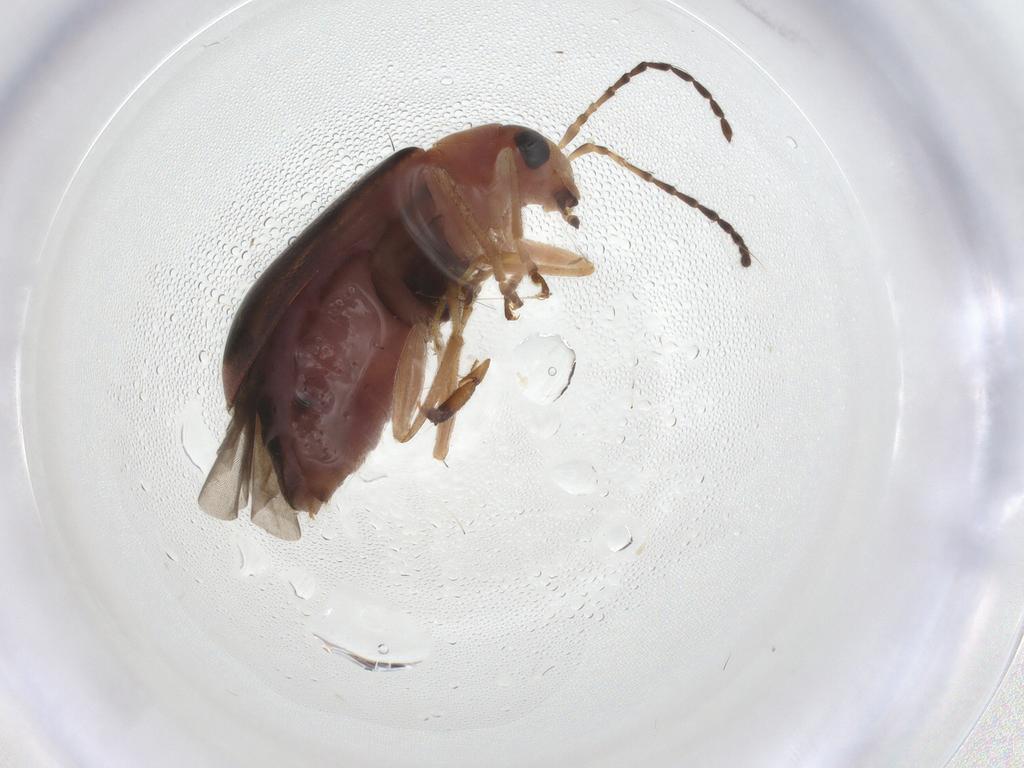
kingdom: Animalia
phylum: Arthropoda
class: Insecta
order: Coleoptera
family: Chrysomelidae
